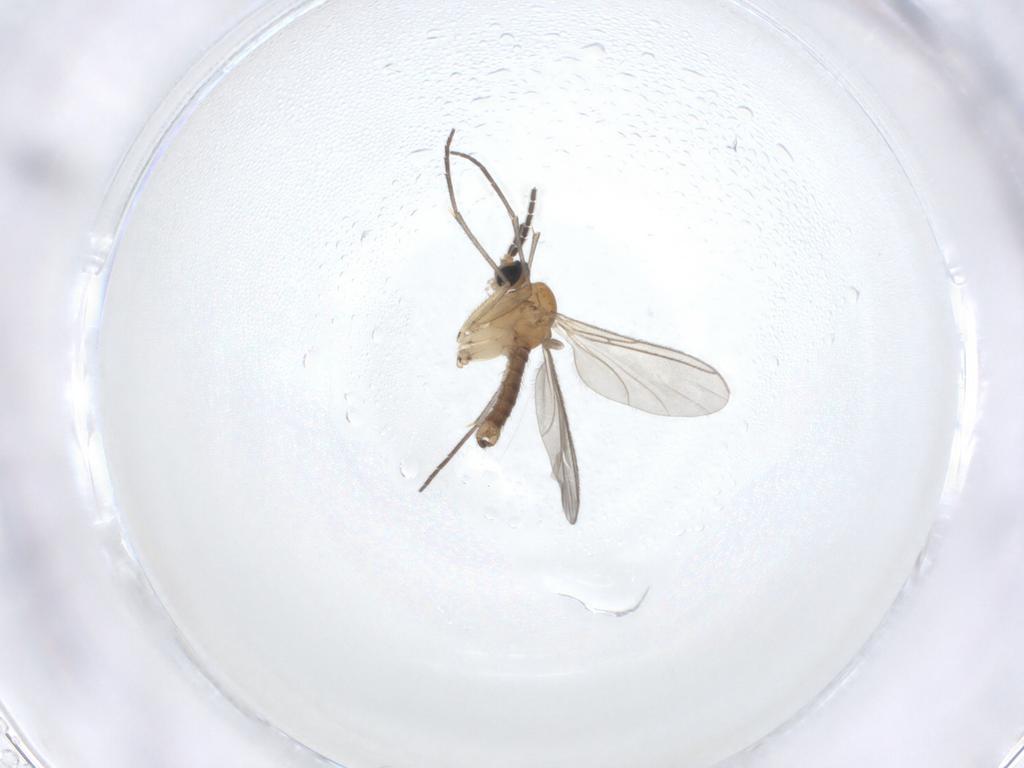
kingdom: Animalia
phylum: Arthropoda
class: Insecta
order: Diptera
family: Sciaridae
